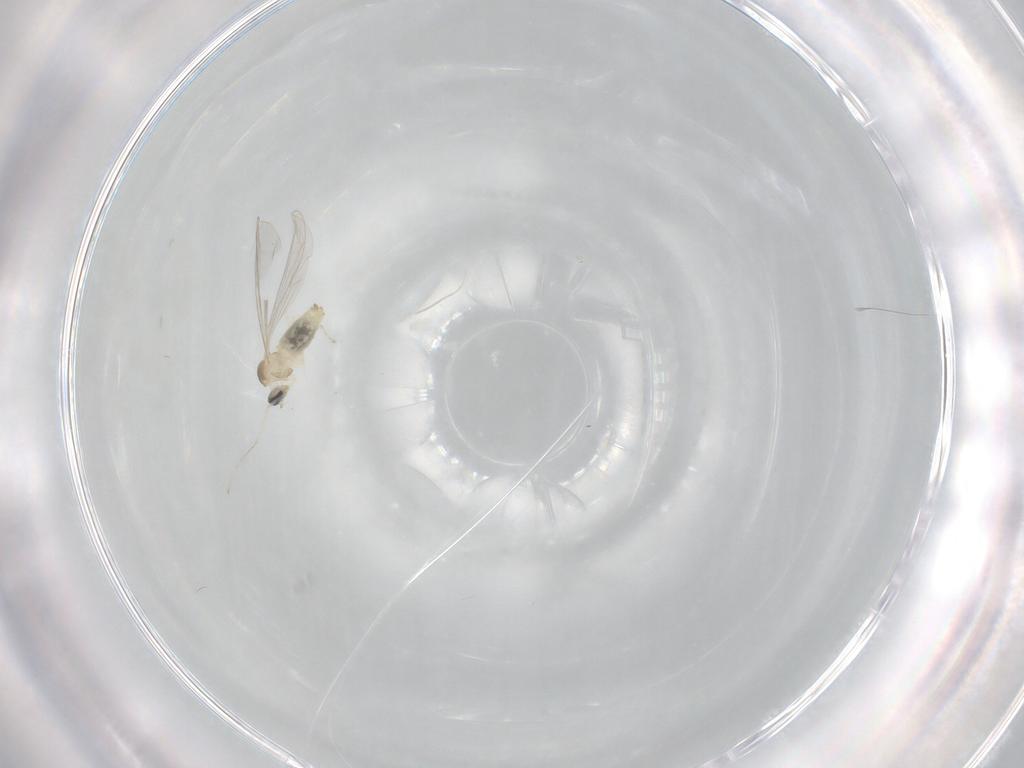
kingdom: Animalia
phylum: Arthropoda
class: Insecta
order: Diptera
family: Cecidomyiidae
